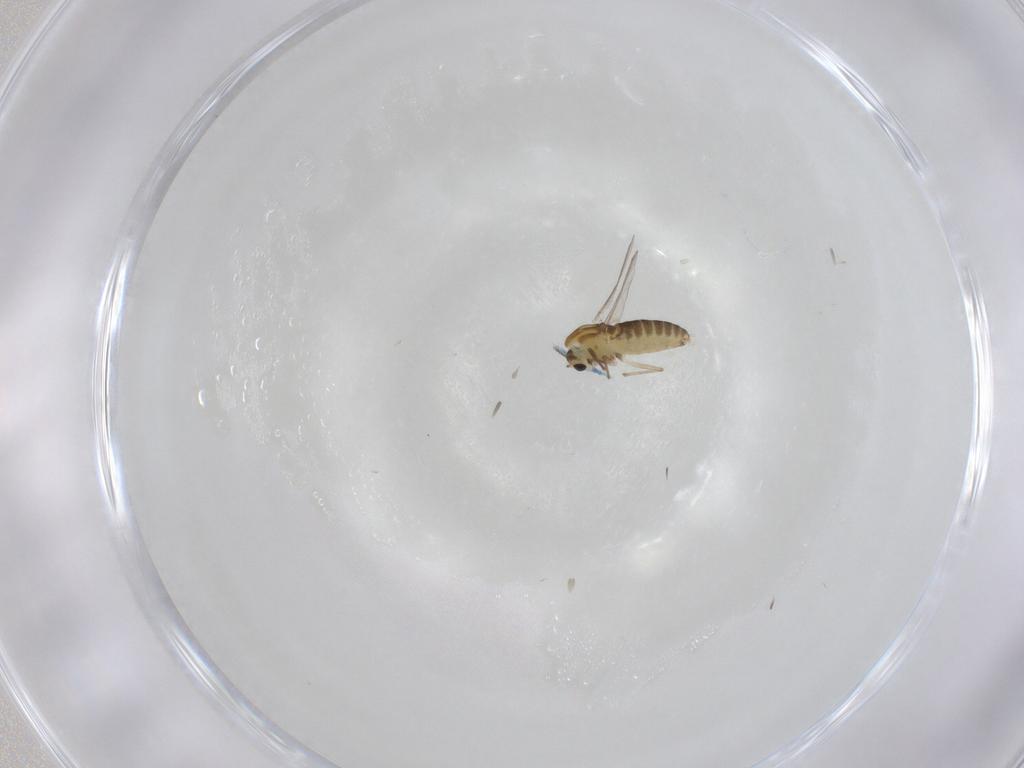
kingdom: Animalia
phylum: Arthropoda
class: Insecta
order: Diptera
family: Chironomidae
